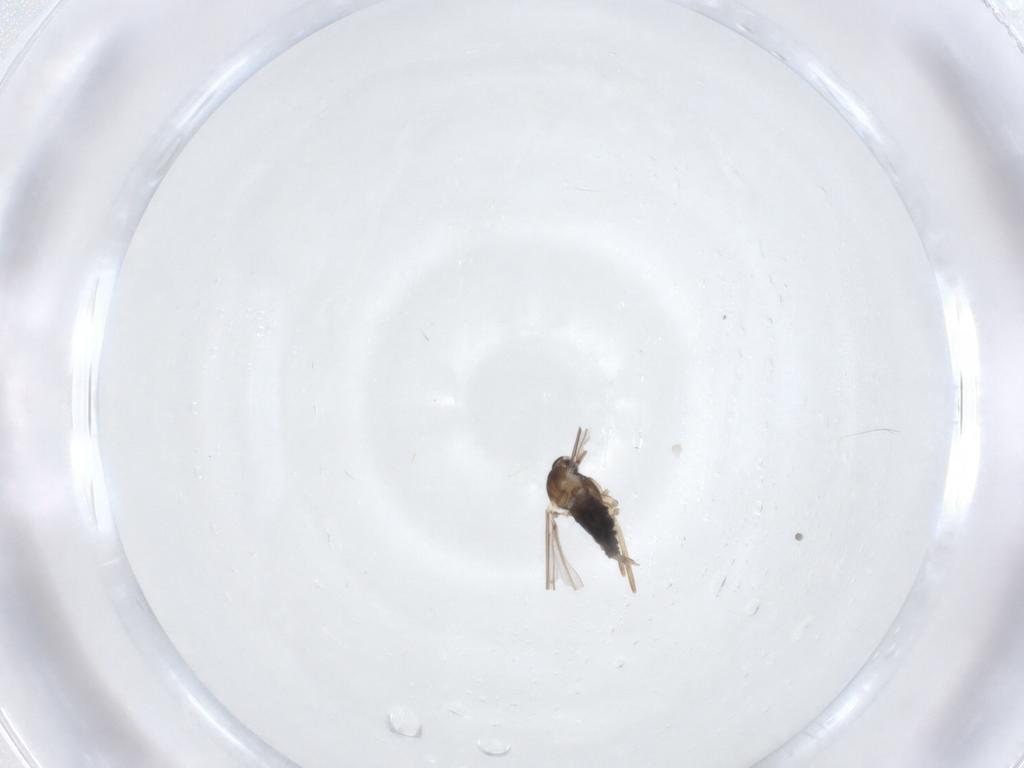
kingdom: Animalia
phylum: Arthropoda
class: Insecta
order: Diptera
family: Cecidomyiidae
